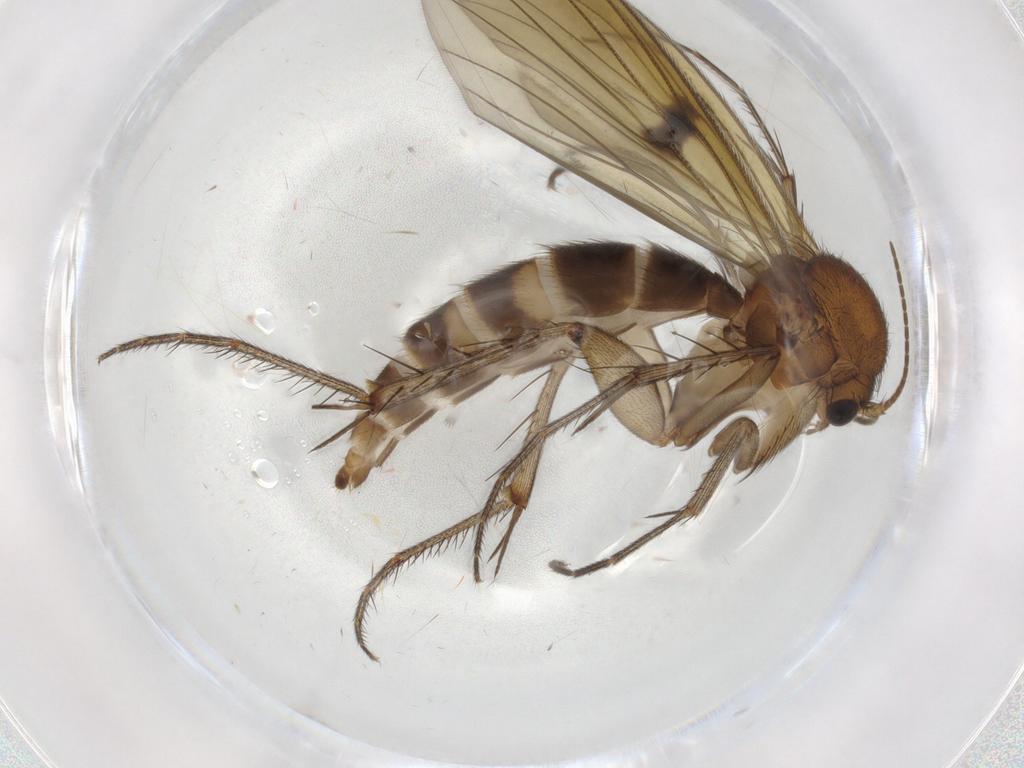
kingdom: Animalia
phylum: Arthropoda
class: Insecta
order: Diptera
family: Mycetophilidae
